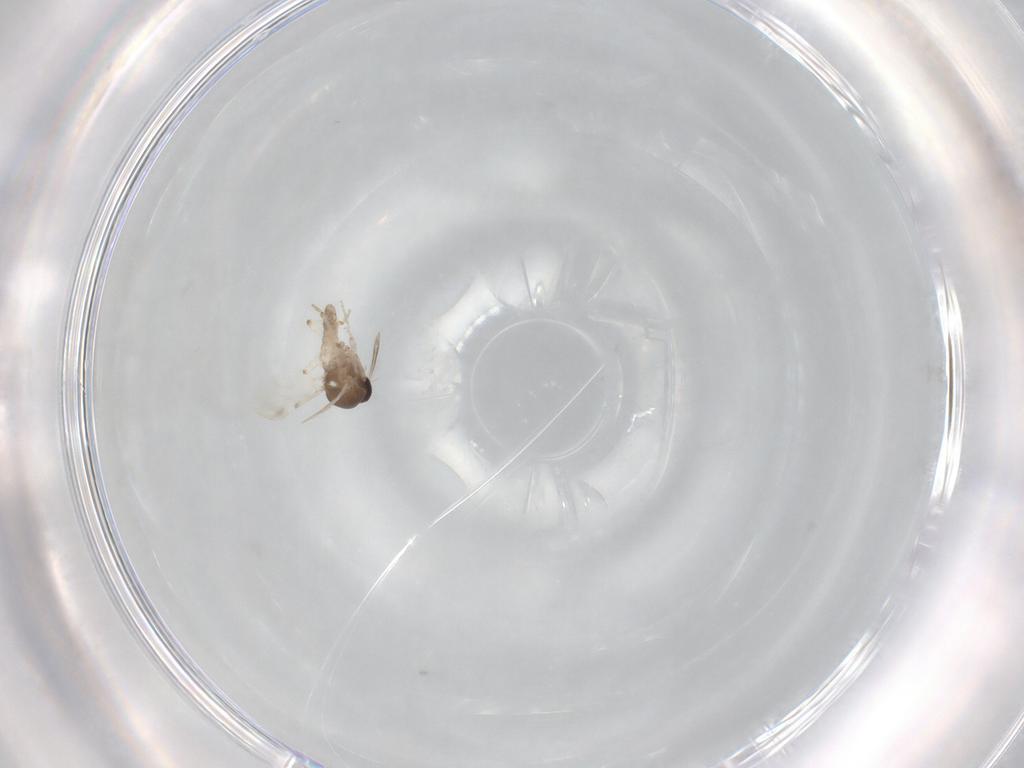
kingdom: Animalia
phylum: Arthropoda
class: Insecta
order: Diptera
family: Ceratopogonidae
